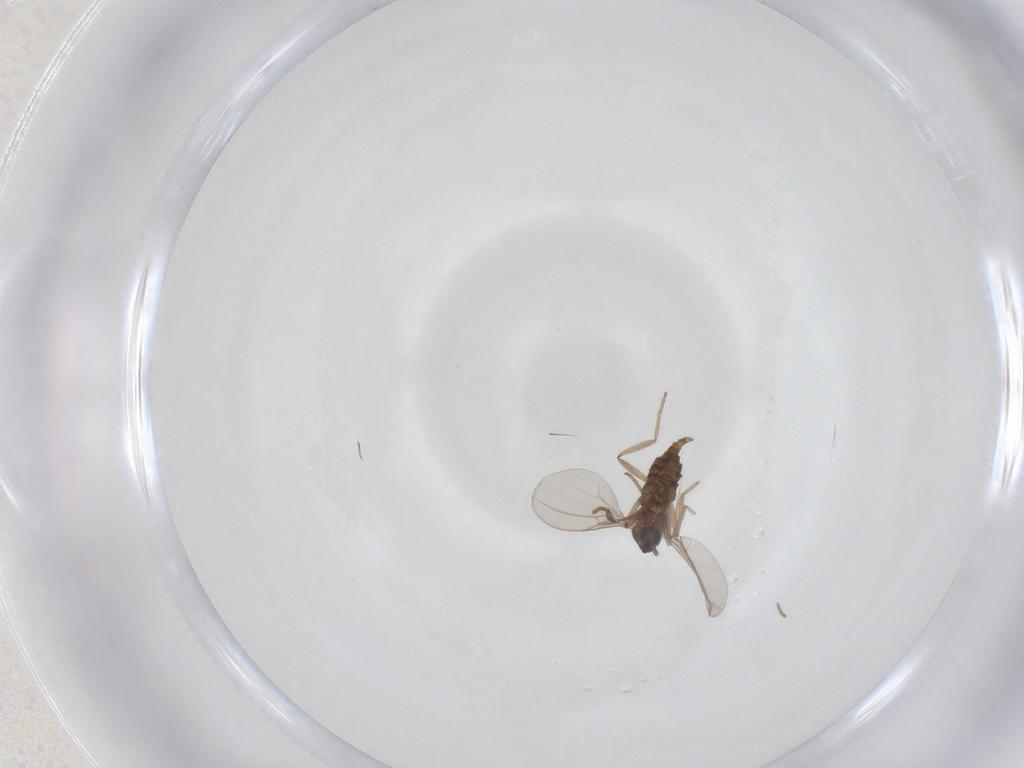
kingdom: Animalia
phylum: Arthropoda
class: Insecta
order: Diptera
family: Cecidomyiidae
